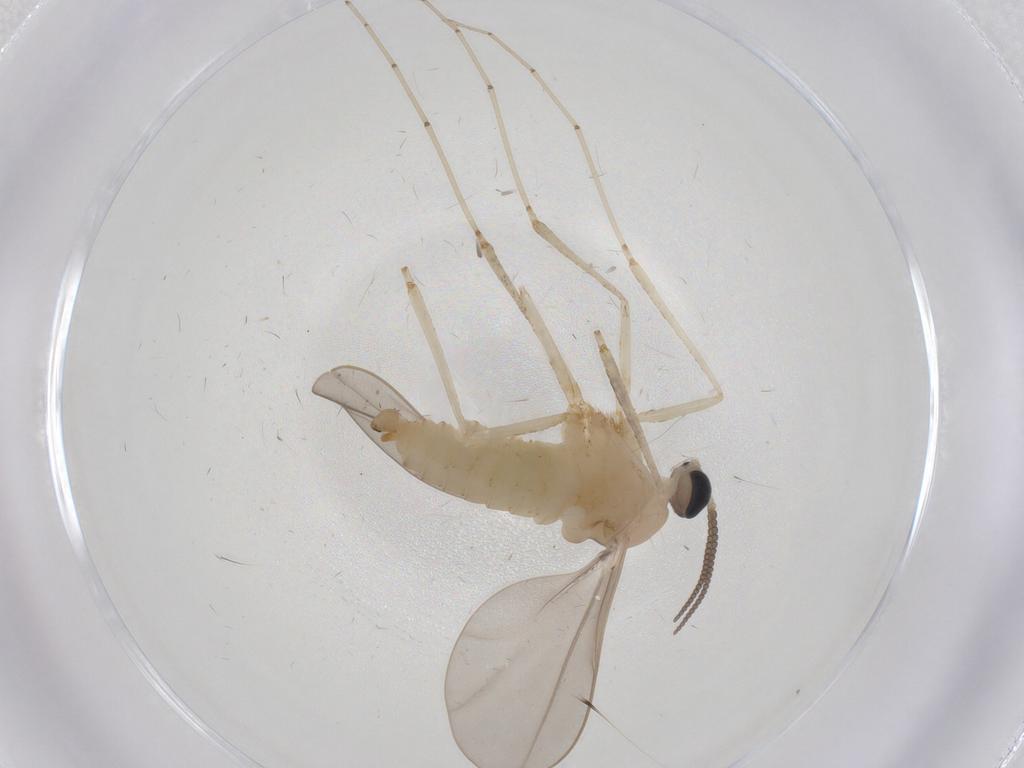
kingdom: Animalia
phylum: Arthropoda
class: Insecta
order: Diptera
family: Cecidomyiidae
